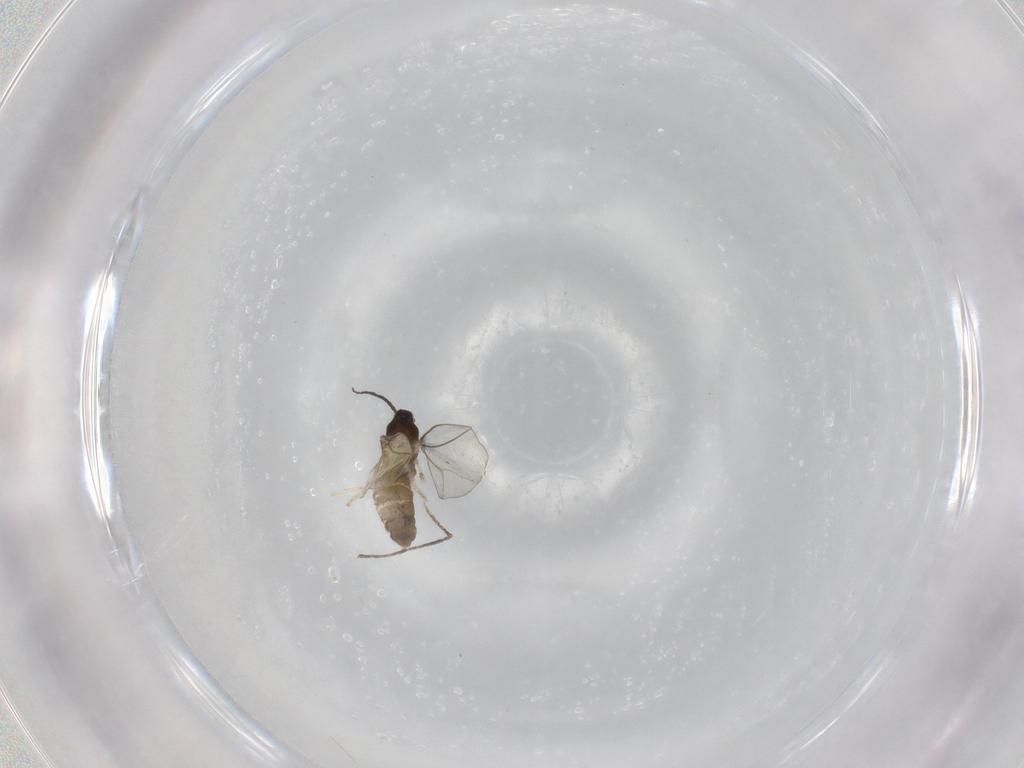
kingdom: Animalia
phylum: Arthropoda
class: Insecta
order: Diptera
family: Cecidomyiidae
